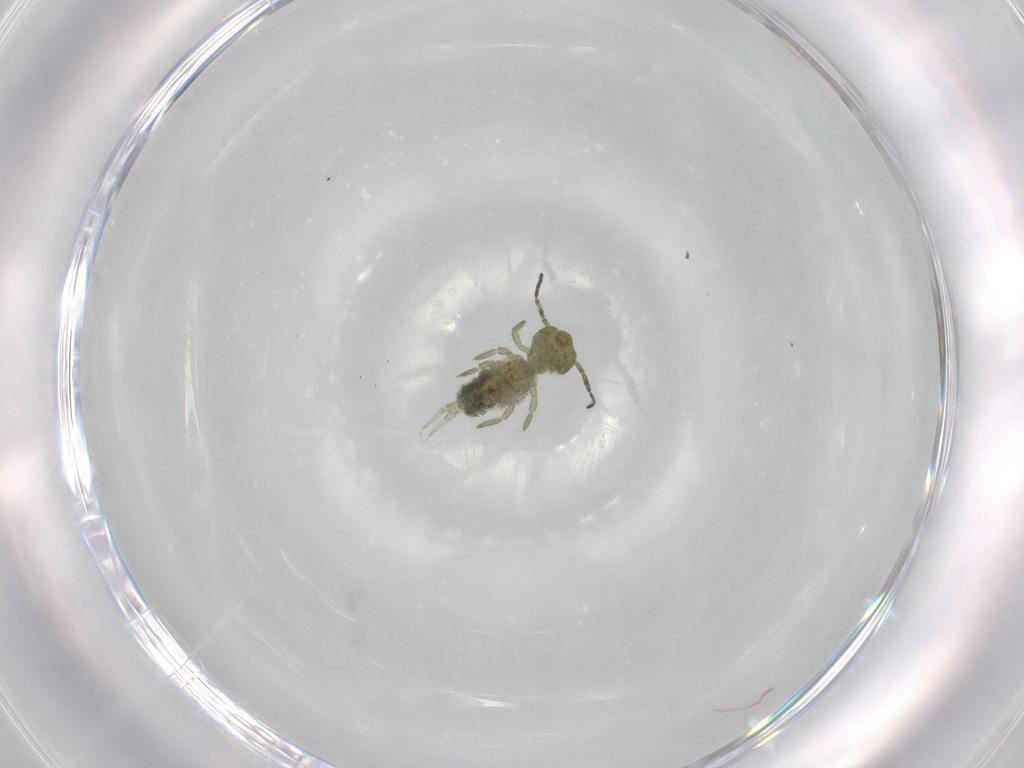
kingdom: Animalia
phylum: Arthropoda
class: Collembola
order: Symphypleona
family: Sminthuridae
